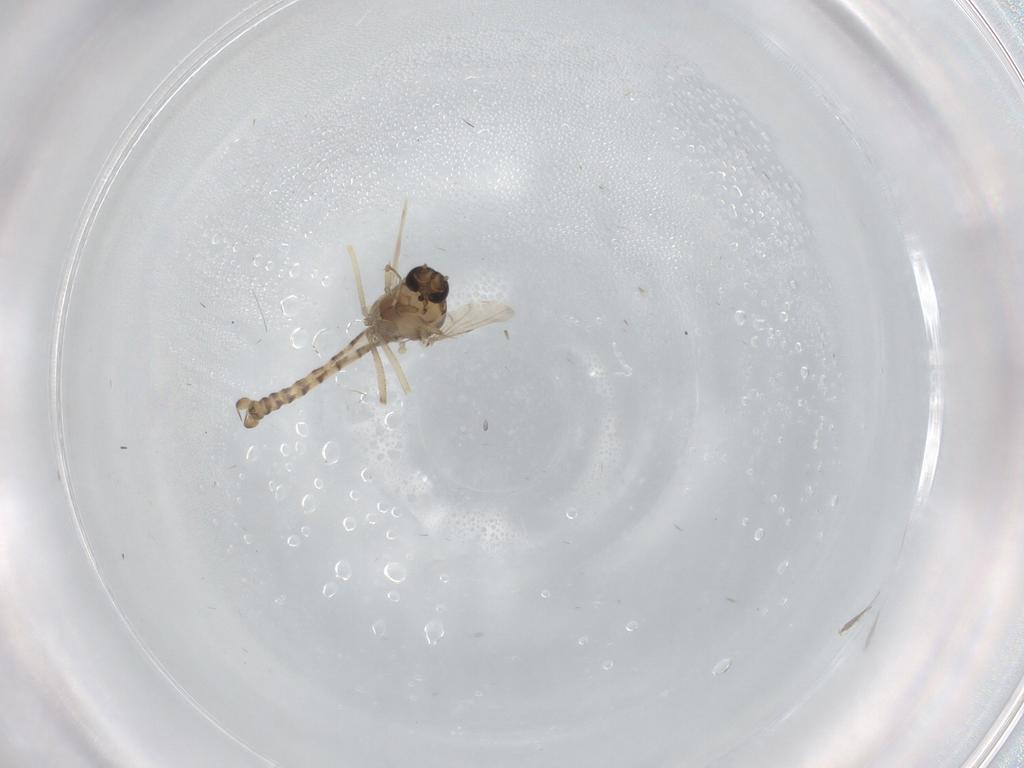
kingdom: Animalia
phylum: Arthropoda
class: Insecta
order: Diptera
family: Ceratopogonidae
